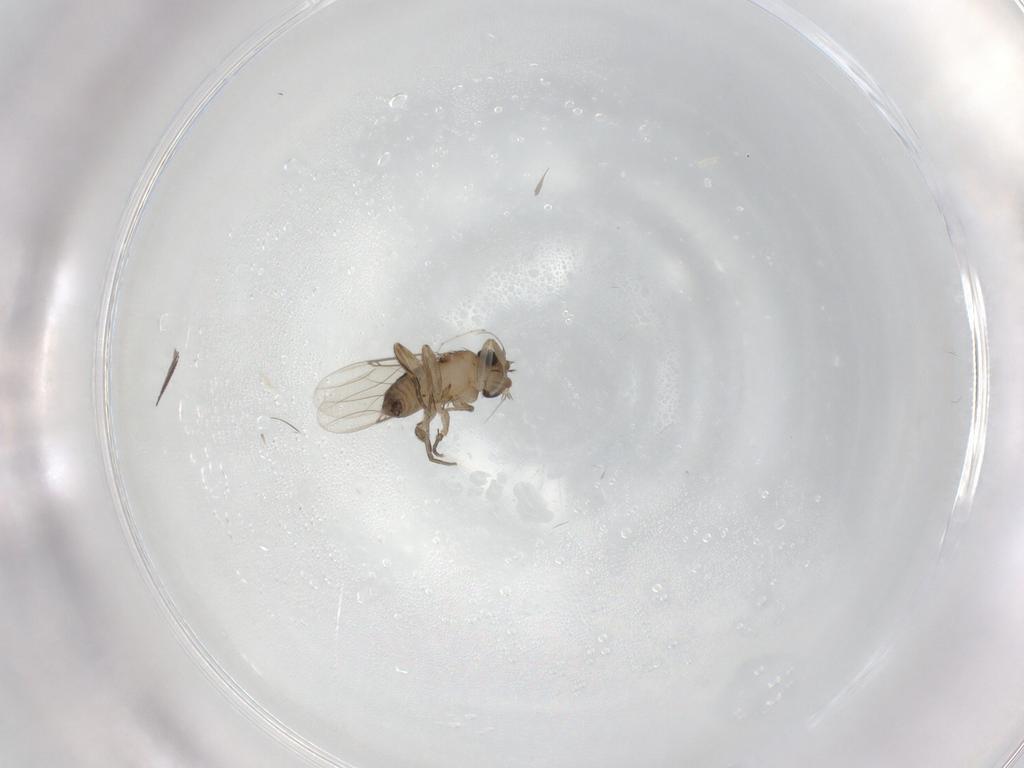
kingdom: Animalia
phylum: Arthropoda
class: Insecta
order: Diptera
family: Phoridae
